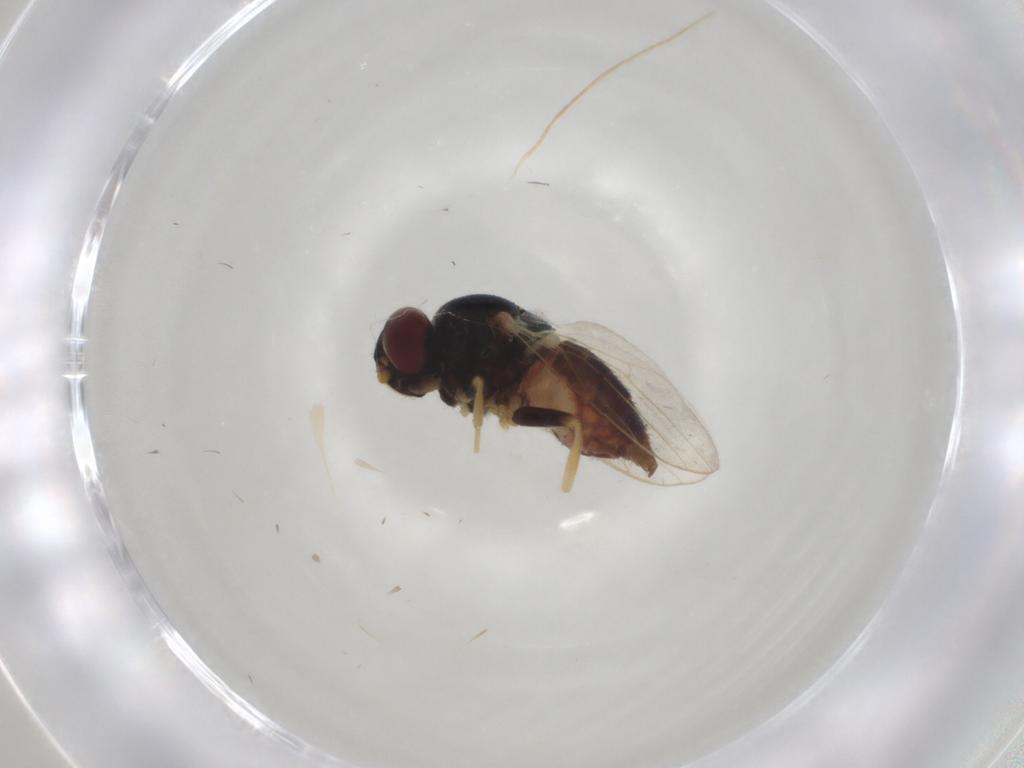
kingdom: Animalia
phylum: Arthropoda
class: Insecta
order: Diptera
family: Chloropidae
